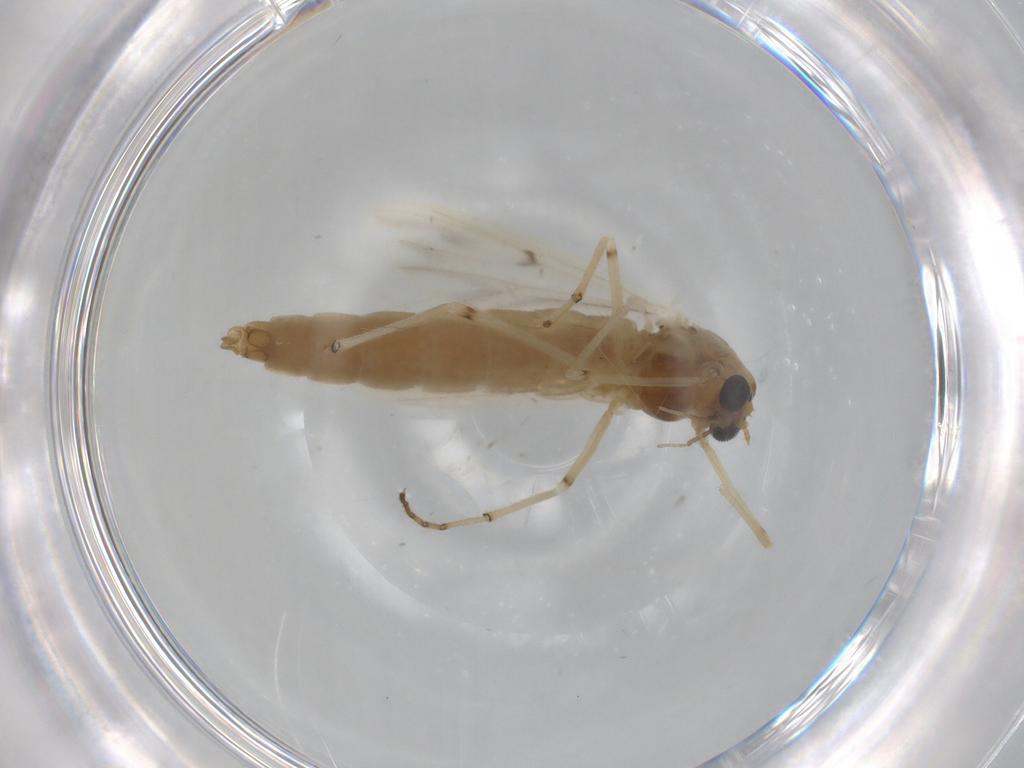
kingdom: Animalia
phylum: Arthropoda
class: Insecta
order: Diptera
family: Chironomidae
